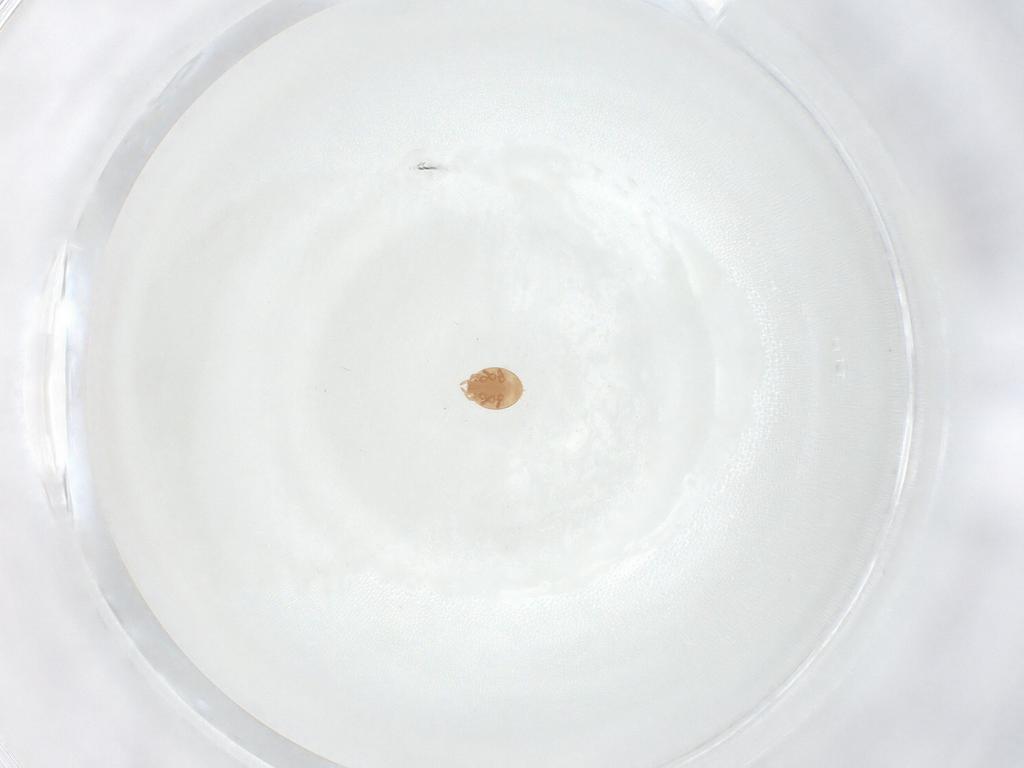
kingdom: Animalia
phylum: Arthropoda
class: Arachnida
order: Mesostigmata
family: Trematuridae
